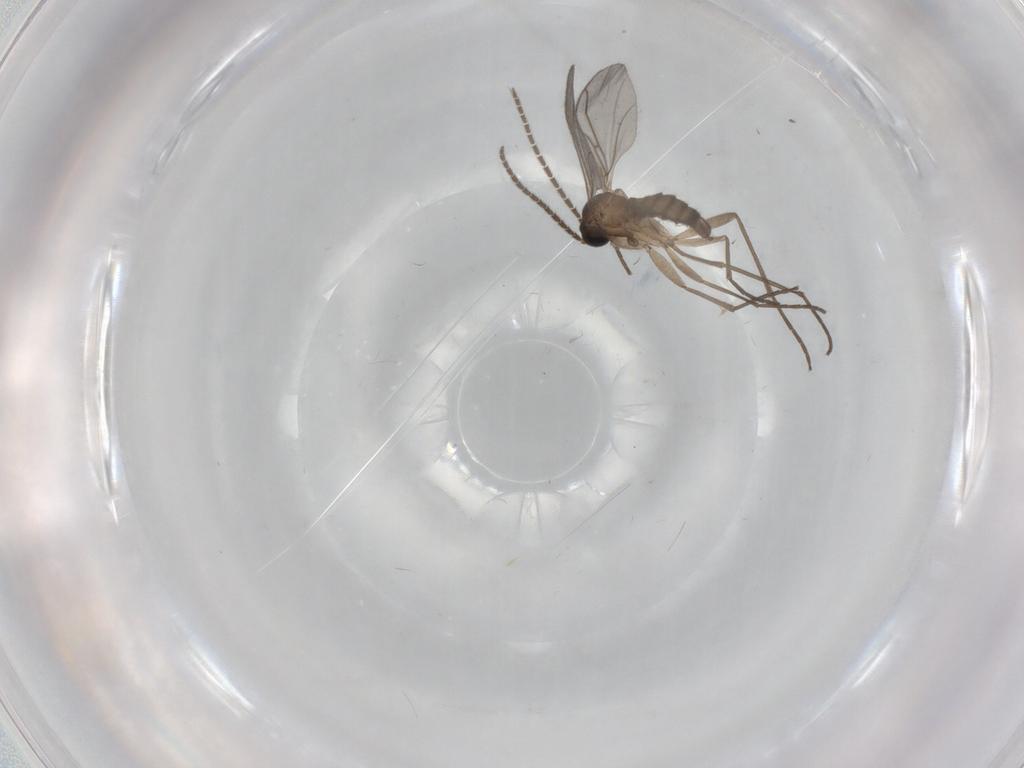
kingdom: Animalia
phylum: Arthropoda
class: Insecta
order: Diptera
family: Sciaridae
